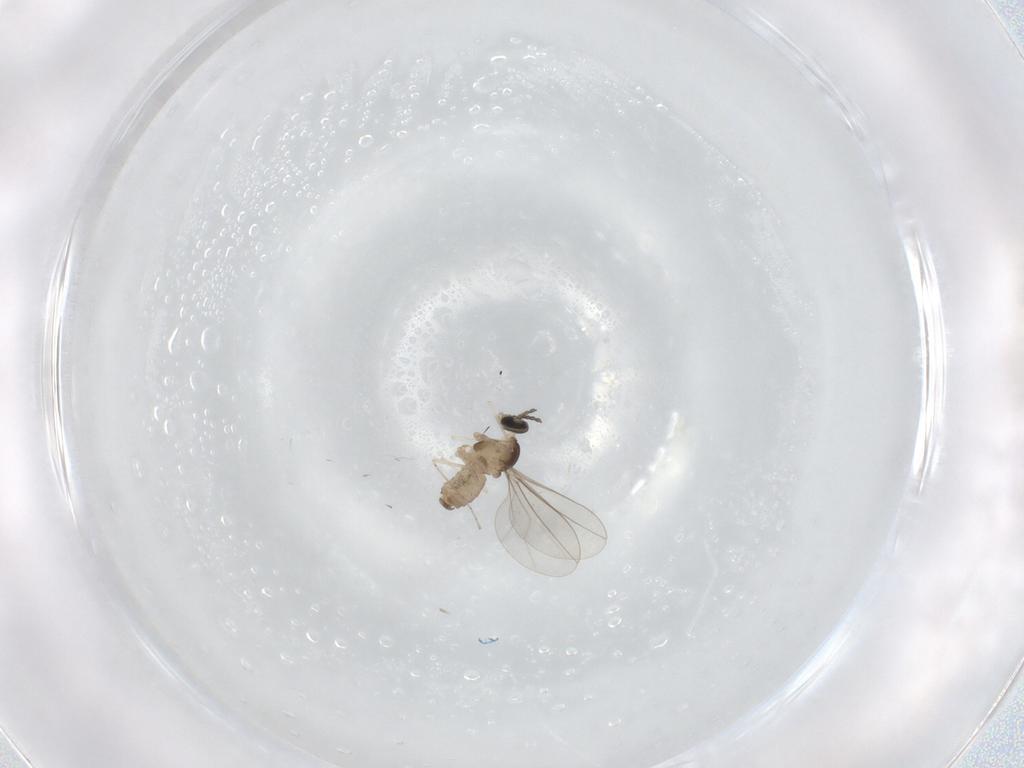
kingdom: Animalia
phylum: Arthropoda
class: Insecta
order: Diptera
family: Cecidomyiidae
